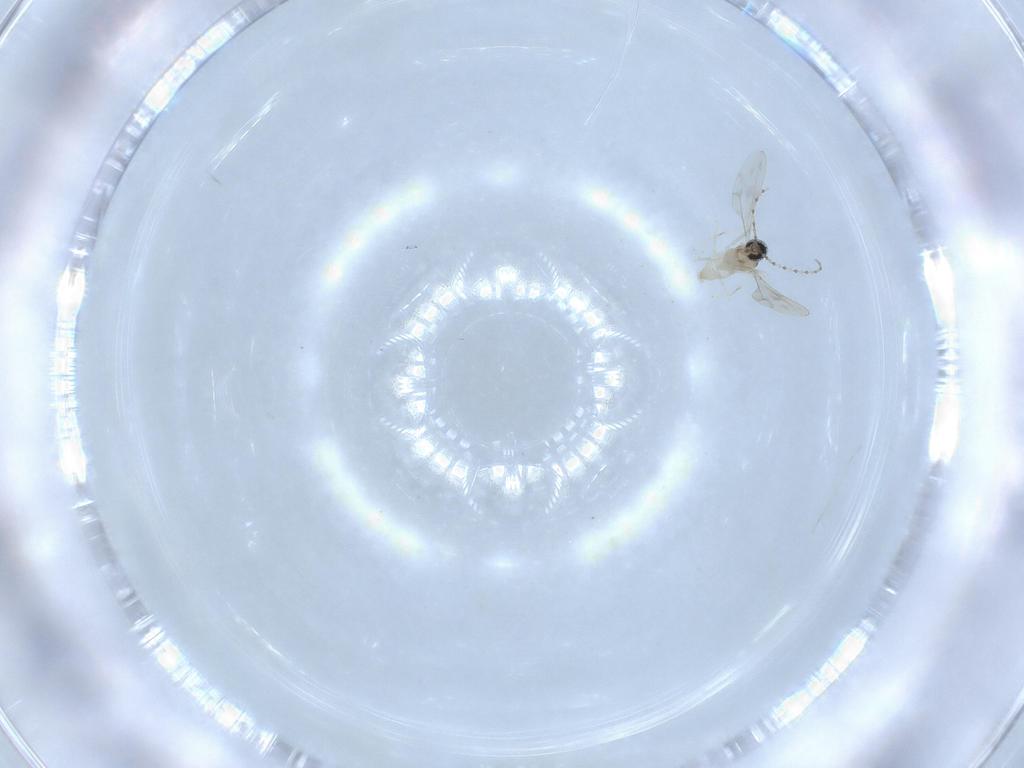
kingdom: Animalia
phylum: Arthropoda
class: Insecta
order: Diptera
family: Cecidomyiidae
